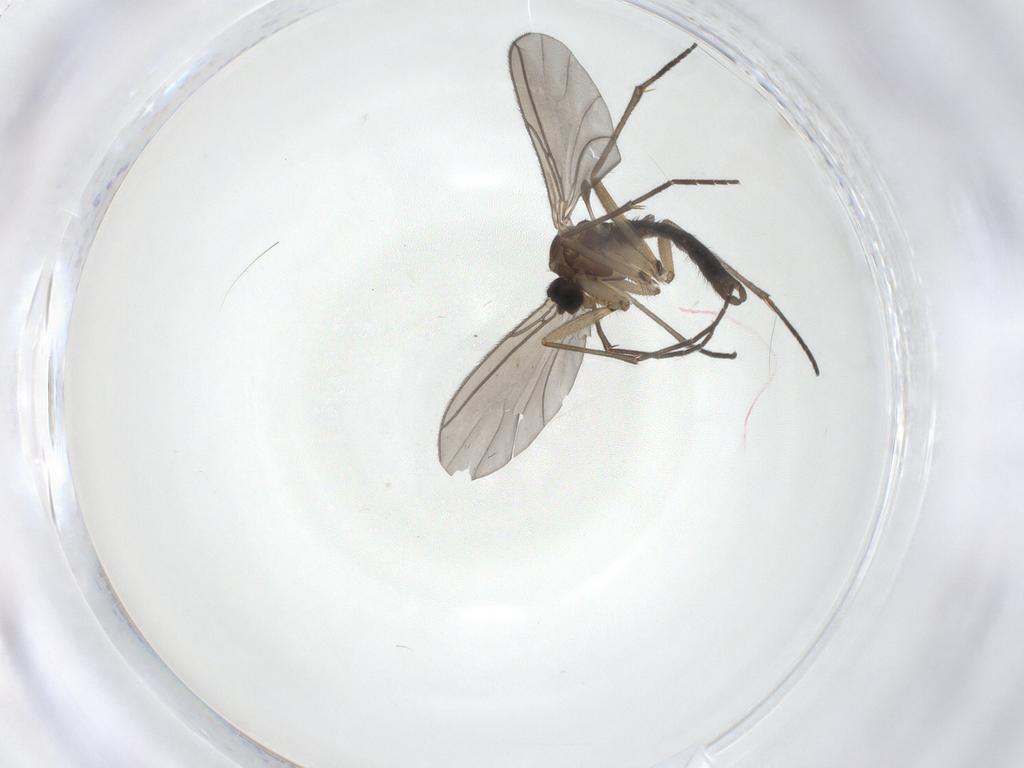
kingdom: Animalia
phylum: Arthropoda
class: Insecta
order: Diptera
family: Sciaridae
